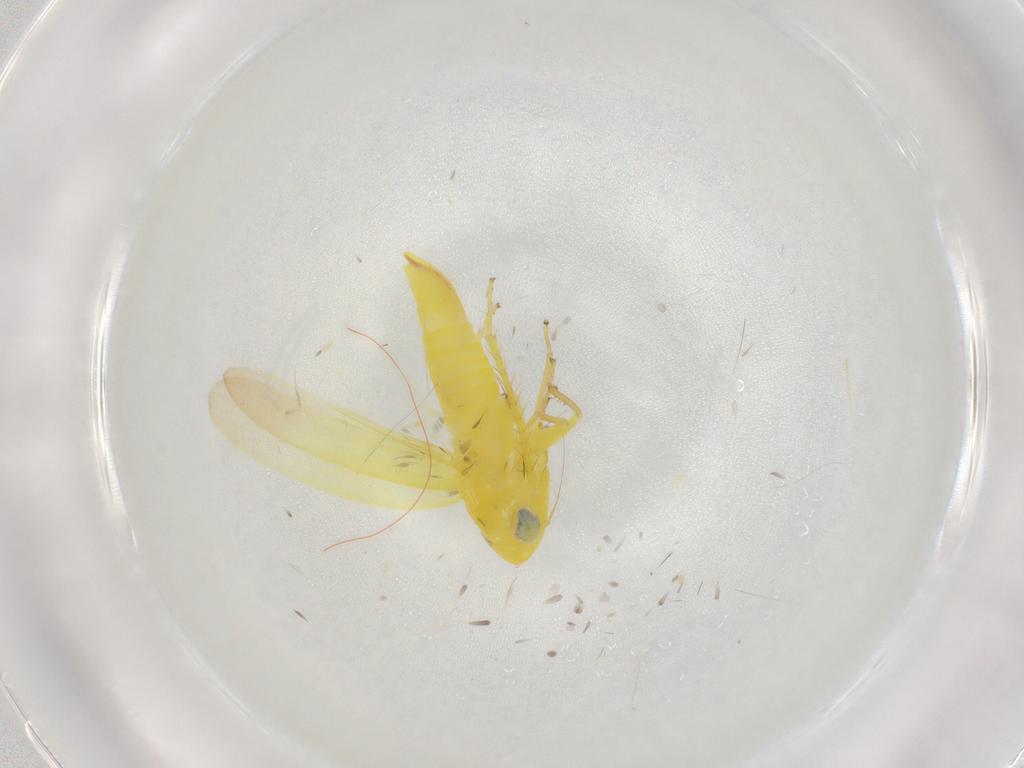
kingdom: Animalia
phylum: Arthropoda
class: Insecta
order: Hemiptera
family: Cicadellidae
